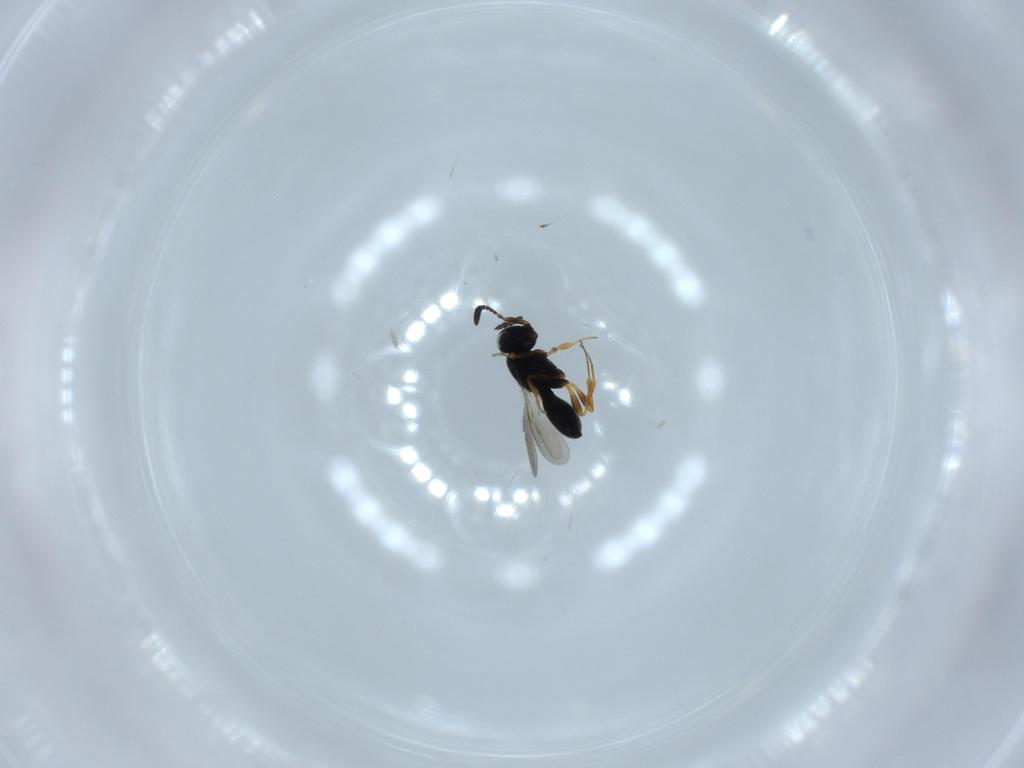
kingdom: Animalia
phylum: Arthropoda
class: Insecta
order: Hymenoptera
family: Scelionidae
